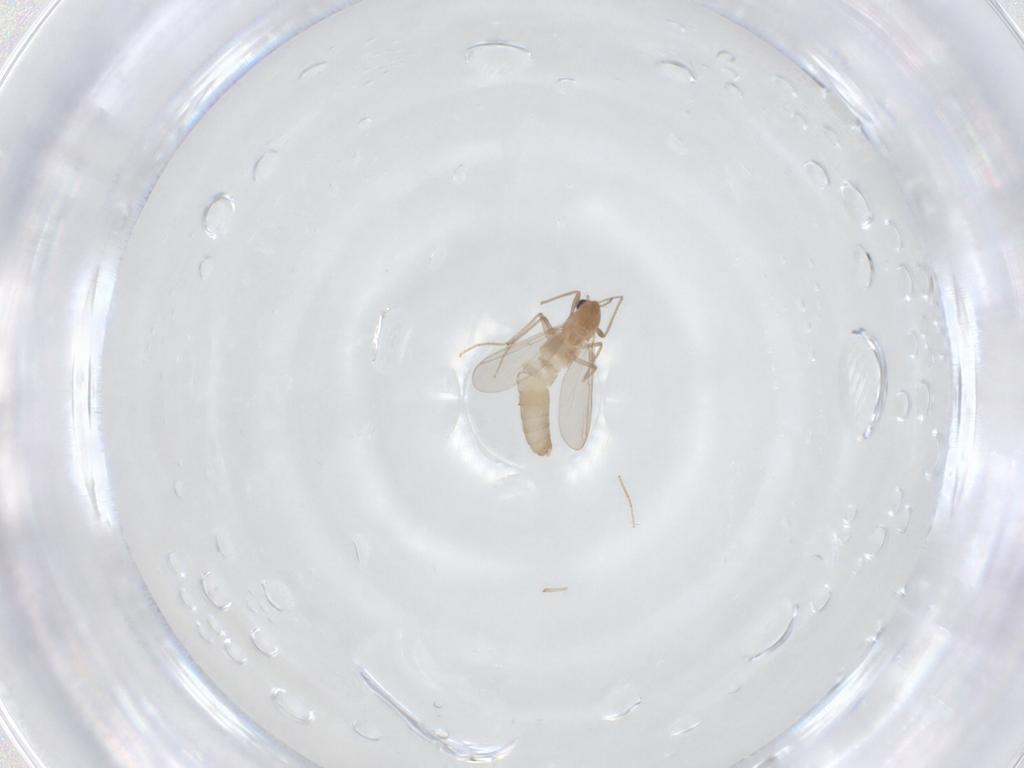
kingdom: Animalia
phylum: Arthropoda
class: Insecta
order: Diptera
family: Chironomidae
